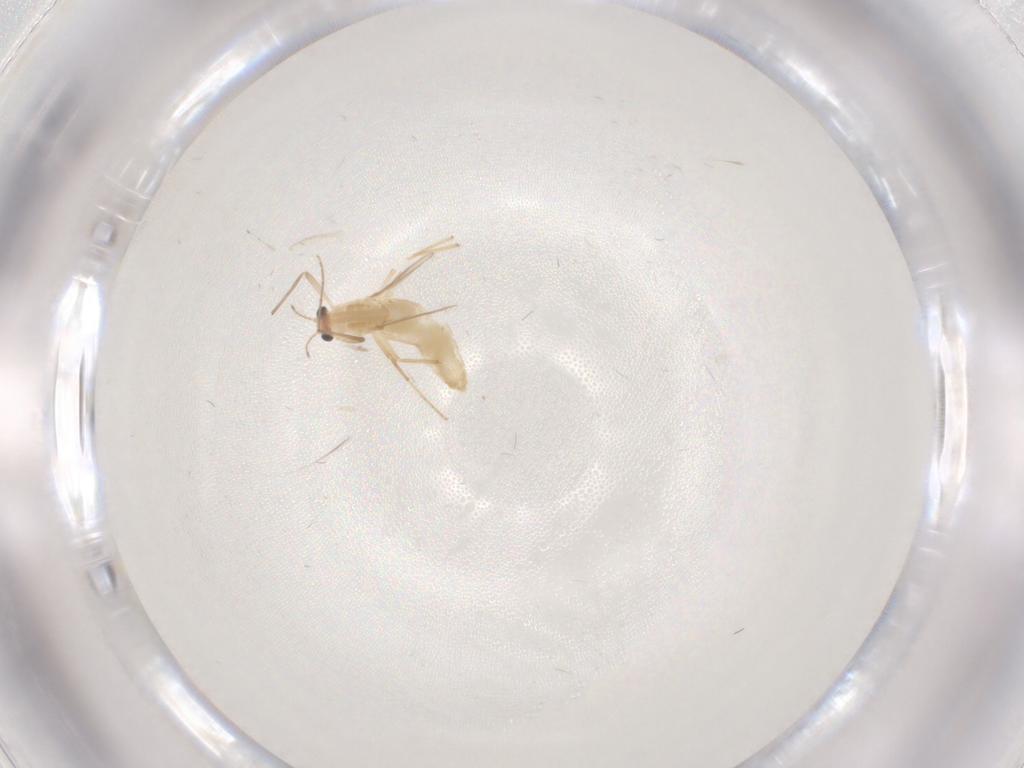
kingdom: Animalia
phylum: Arthropoda
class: Insecta
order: Diptera
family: Chironomidae
